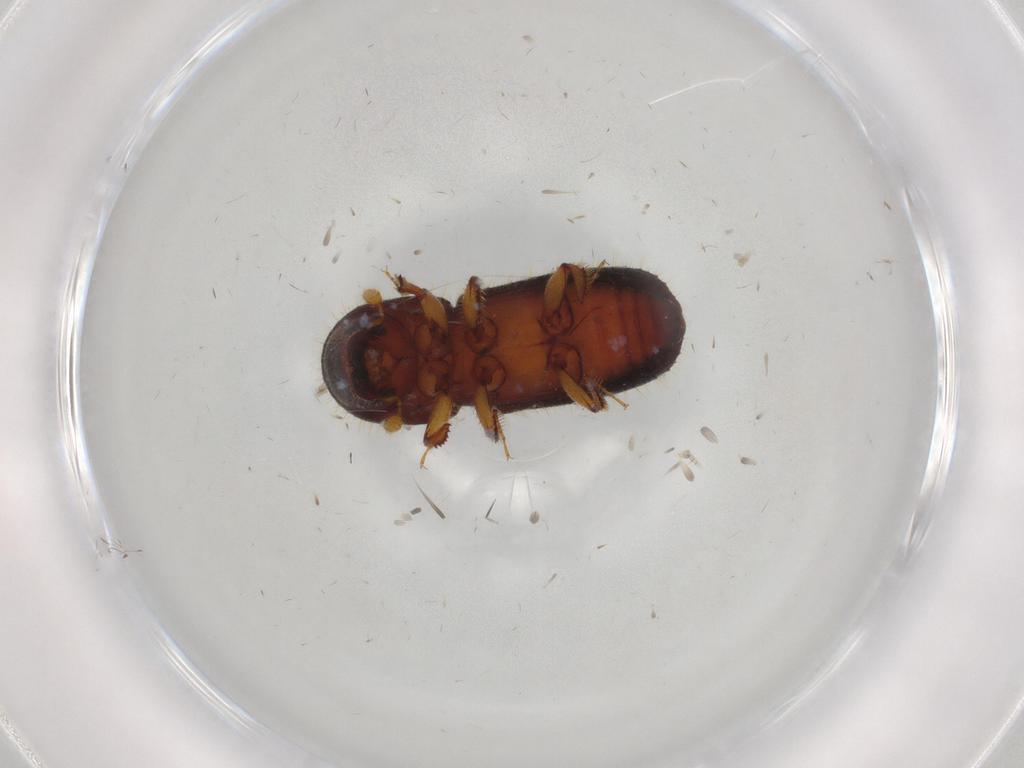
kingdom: Animalia
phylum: Arthropoda
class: Insecta
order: Coleoptera
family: Curculionidae
